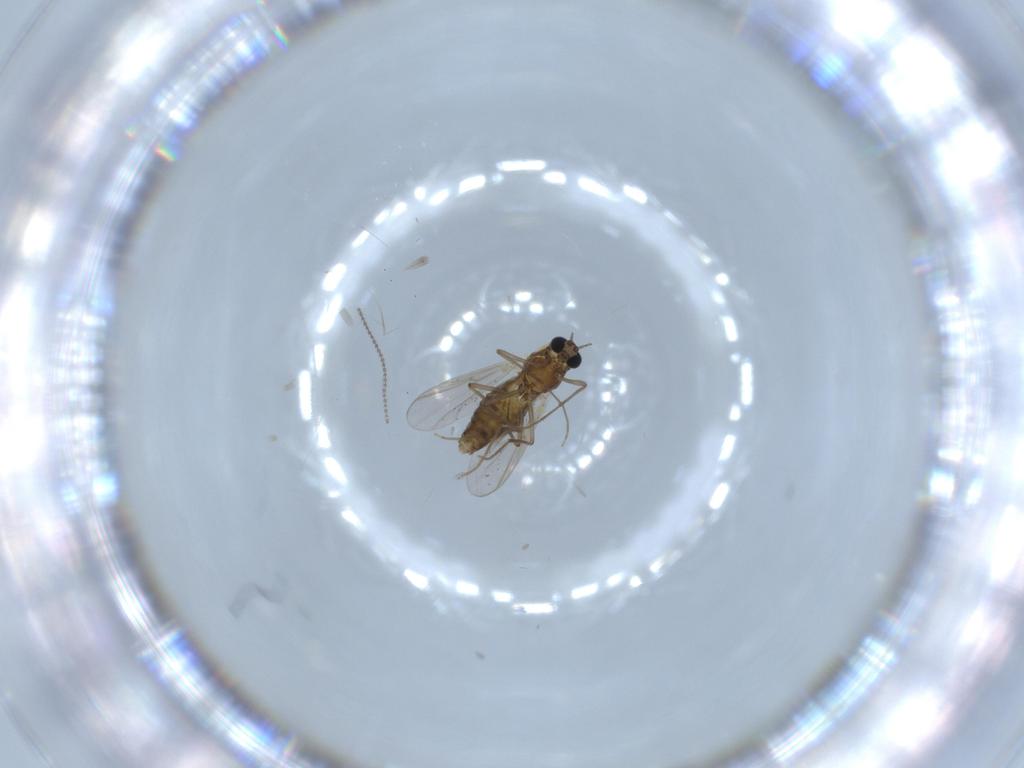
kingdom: Animalia
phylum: Arthropoda
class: Insecta
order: Diptera
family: Chironomidae
